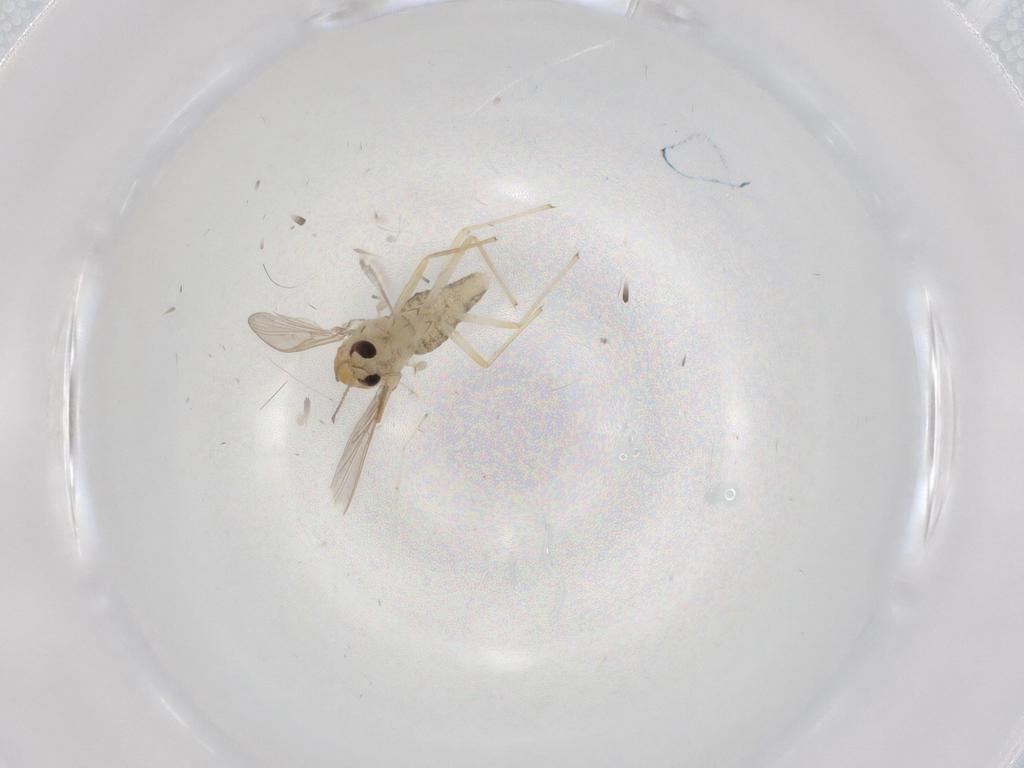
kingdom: Animalia
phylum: Arthropoda
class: Insecta
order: Diptera
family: Chironomidae
